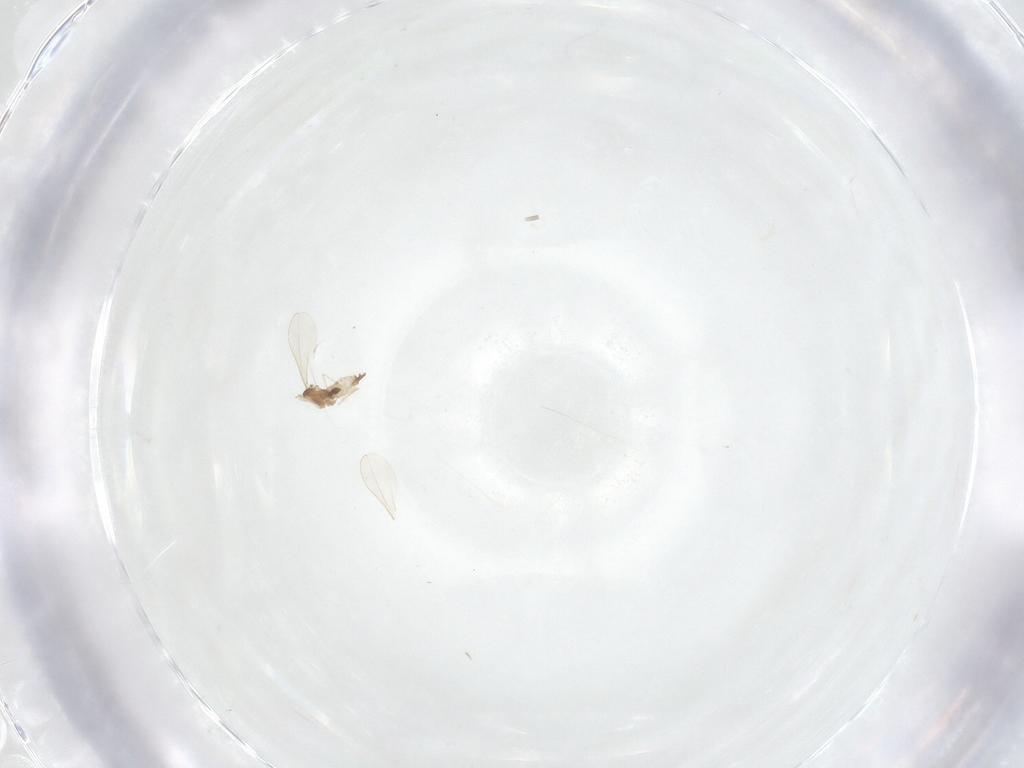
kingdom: Animalia
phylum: Arthropoda
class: Insecta
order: Diptera
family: Cecidomyiidae
